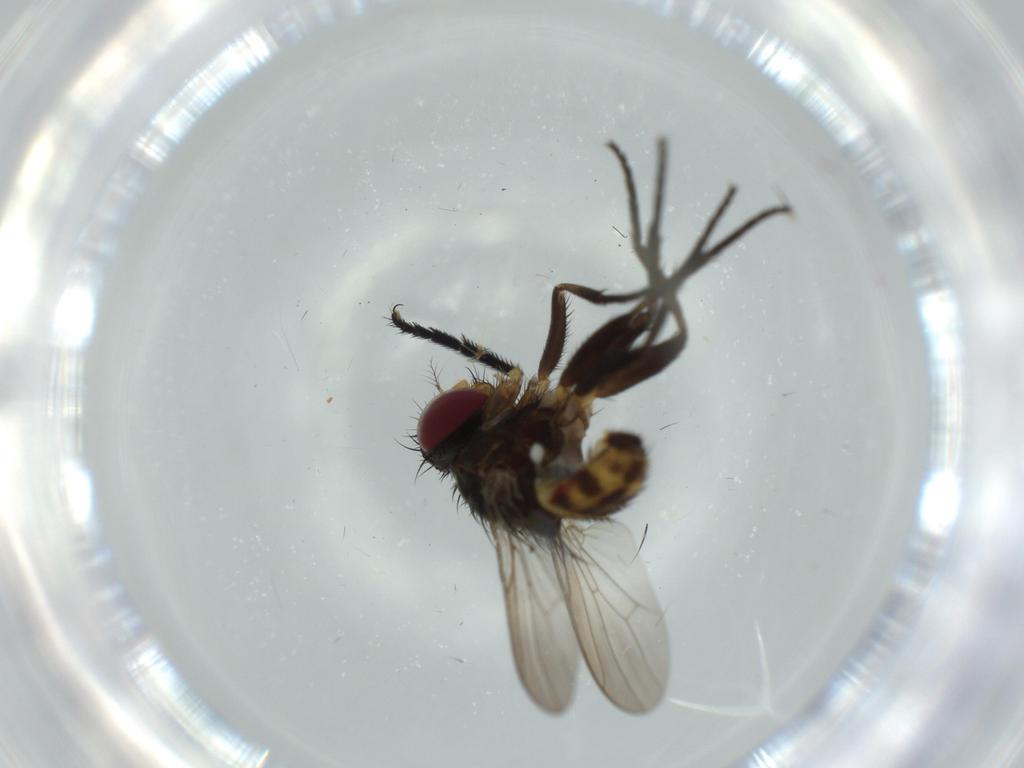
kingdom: Animalia
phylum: Arthropoda
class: Insecta
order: Diptera
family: Anthomyiidae
